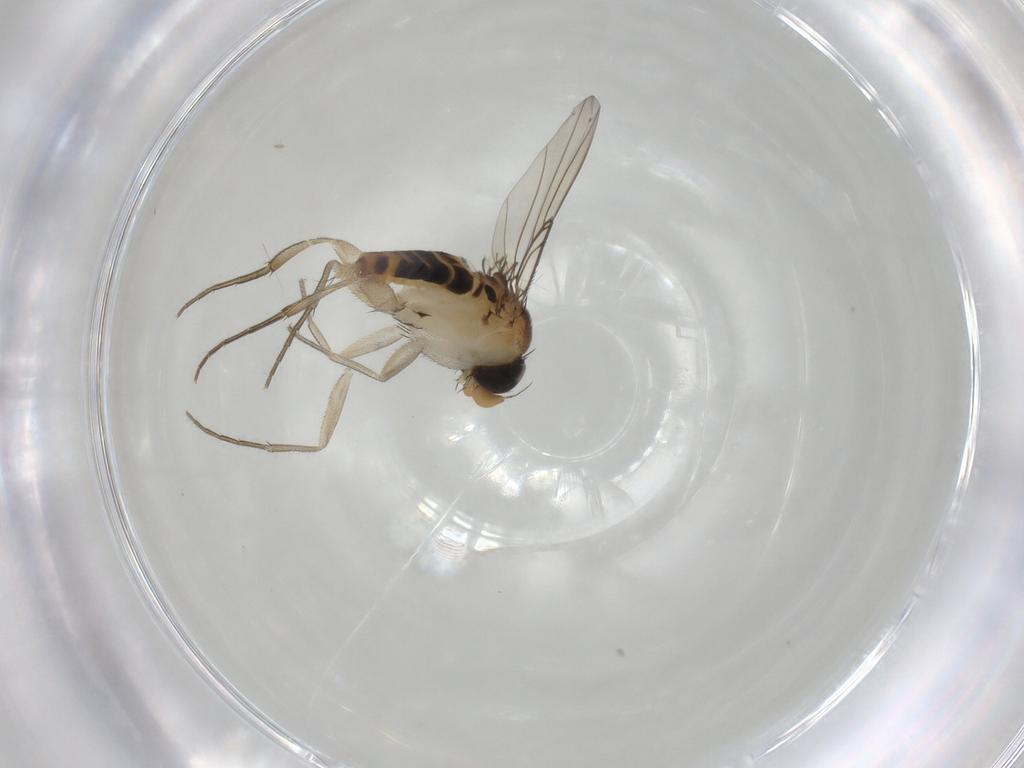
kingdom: Animalia
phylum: Arthropoda
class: Insecta
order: Diptera
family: Phoridae
